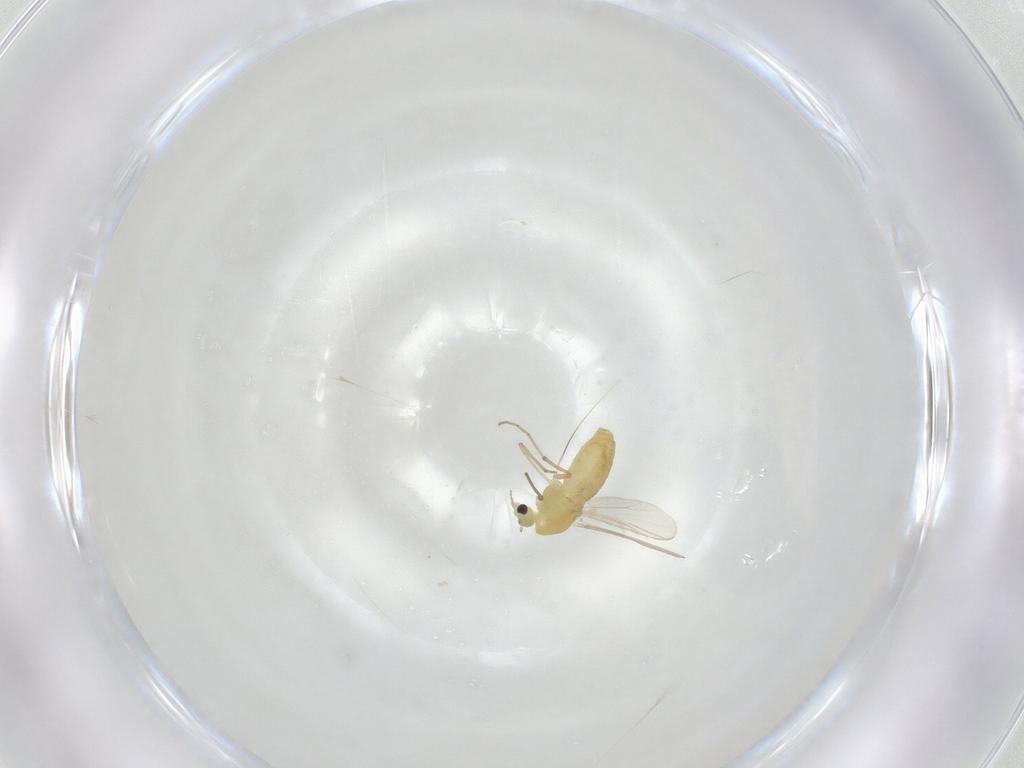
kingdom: Animalia
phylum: Arthropoda
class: Insecta
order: Diptera
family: Chironomidae
